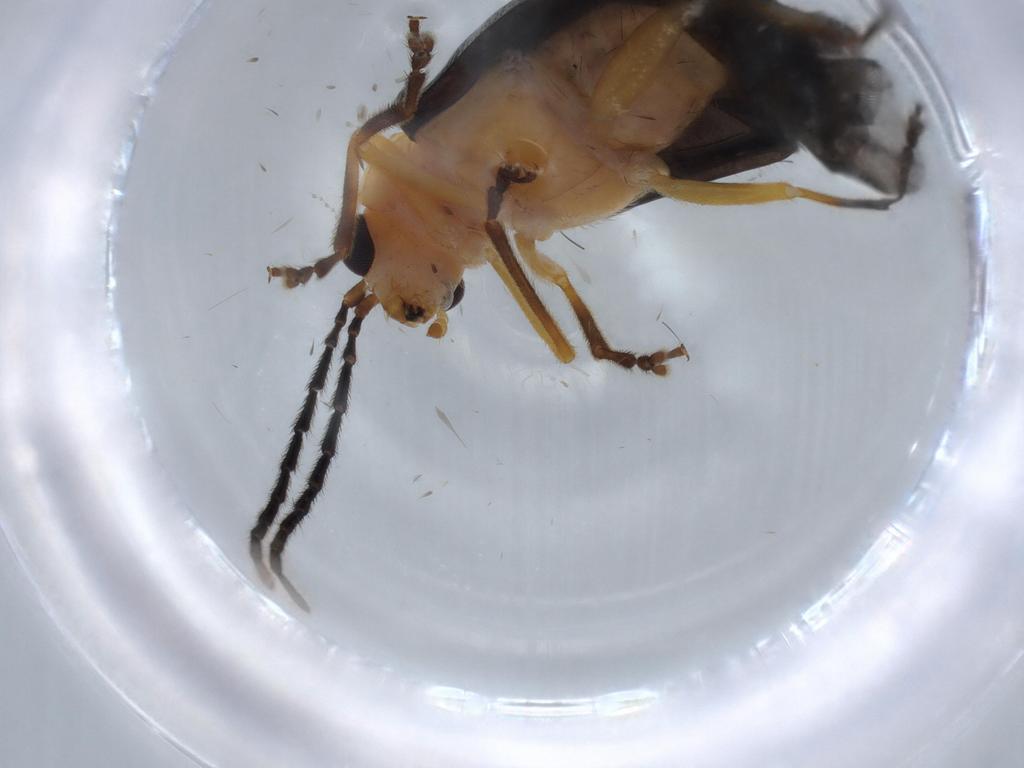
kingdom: Animalia
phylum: Arthropoda
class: Insecta
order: Coleoptera
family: Chrysomelidae
